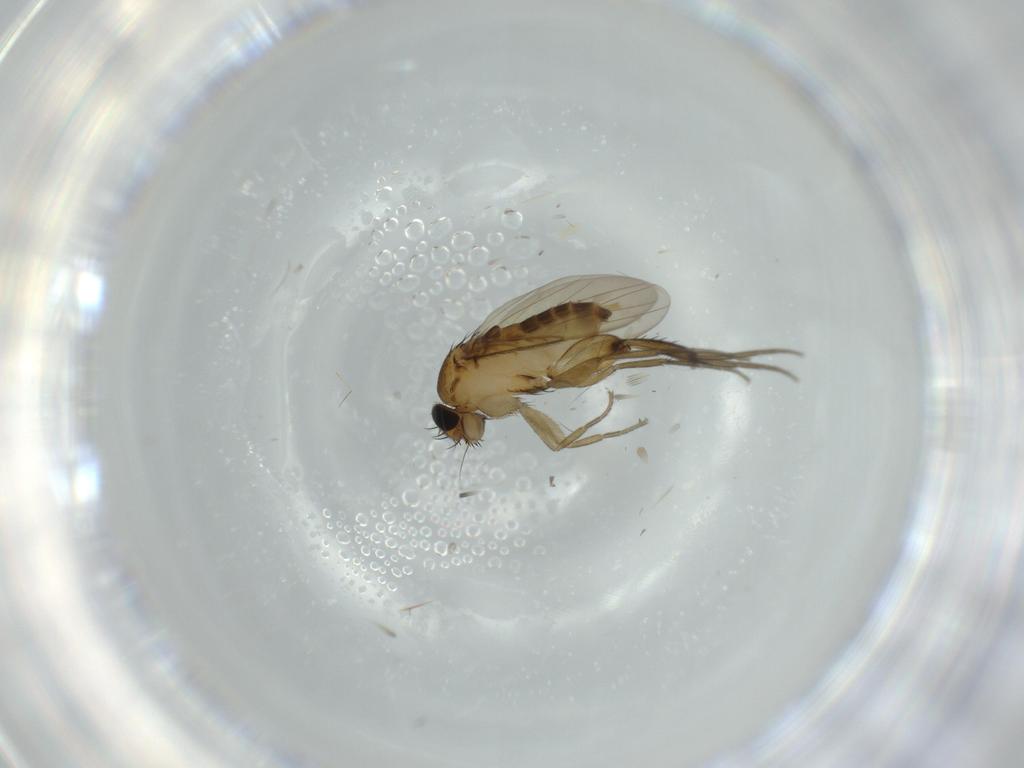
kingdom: Animalia
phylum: Arthropoda
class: Insecta
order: Diptera
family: Phoridae
